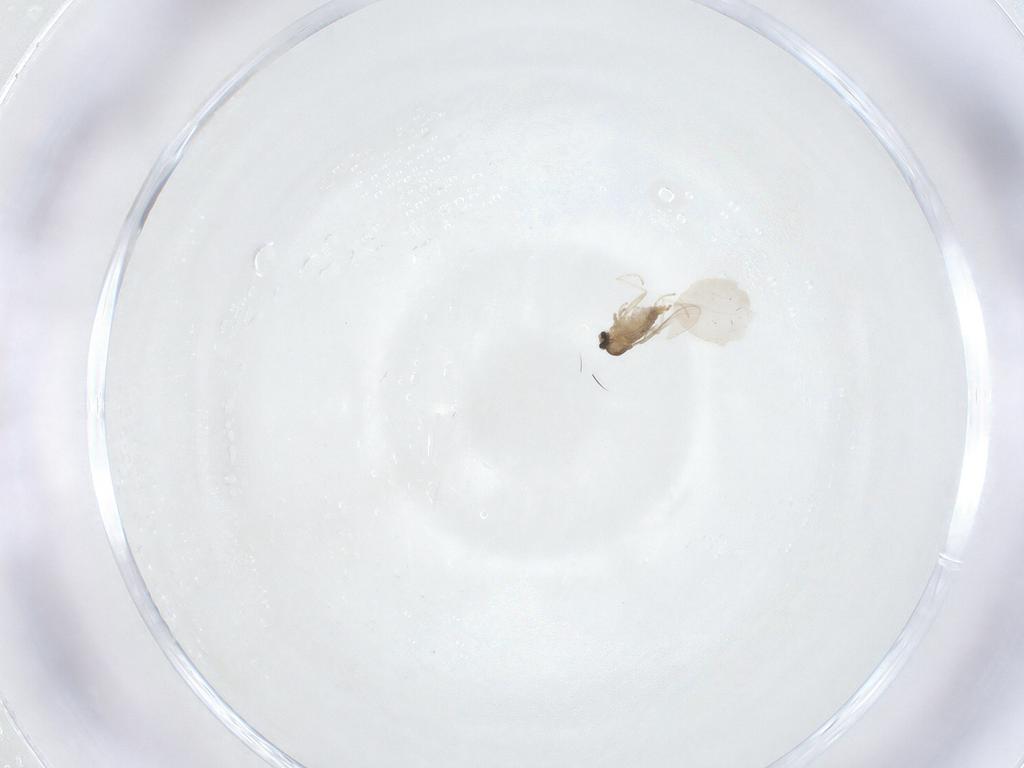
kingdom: Animalia
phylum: Arthropoda
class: Insecta
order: Diptera
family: Cecidomyiidae
